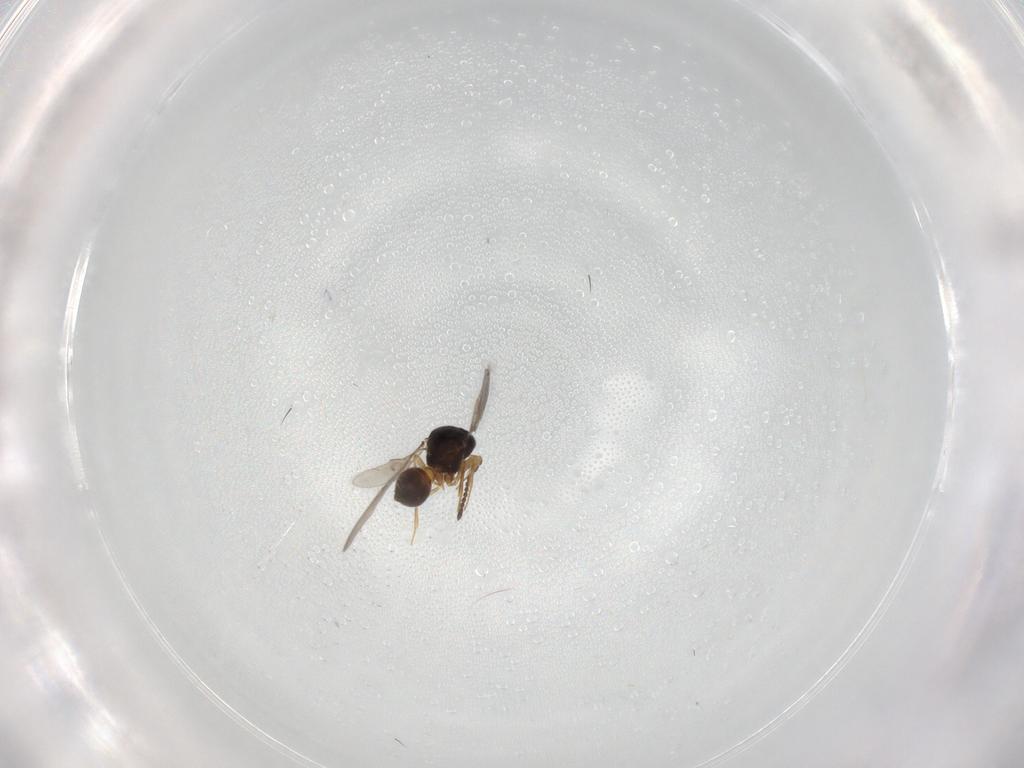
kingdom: Animalia
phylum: Arthropoda
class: Insecta
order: Hymenoptera
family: Scelionidae
